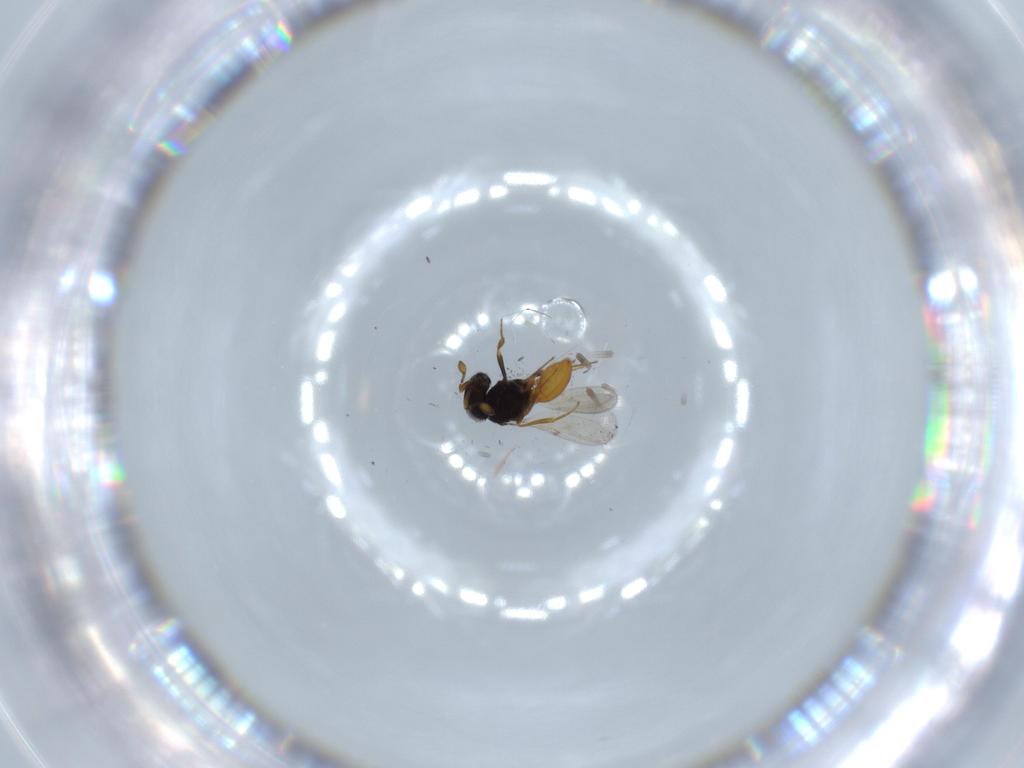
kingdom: Animalia
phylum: Arthropoda
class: Insecta
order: Hymenoptera
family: Scelionidae
